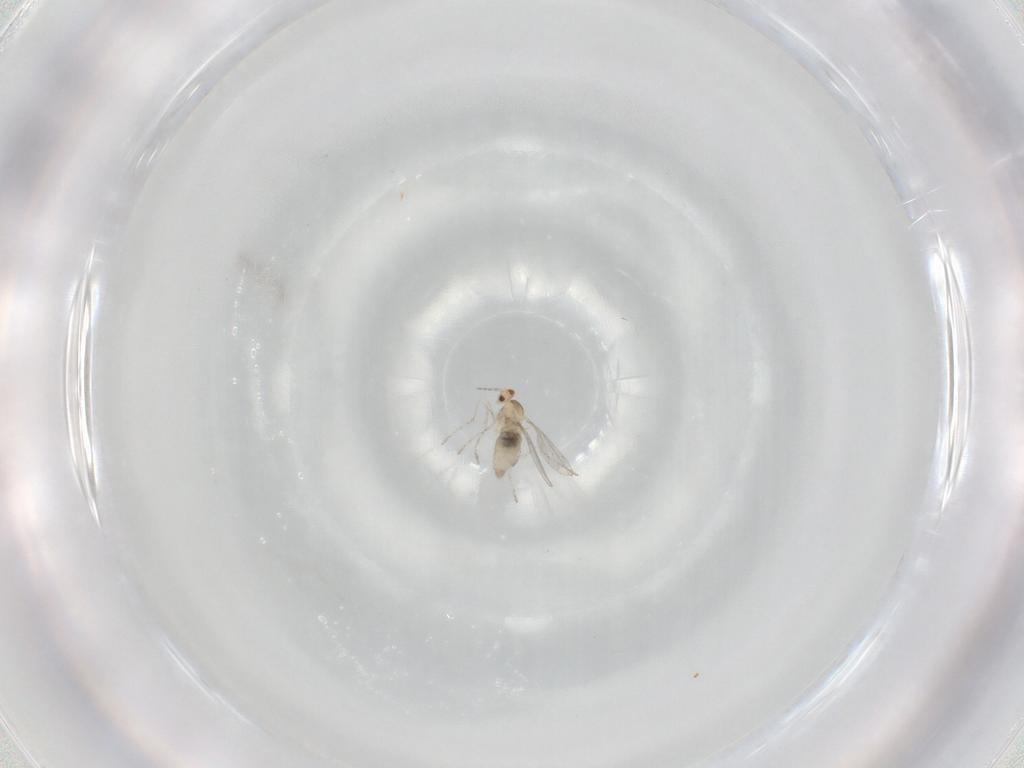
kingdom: Animalia
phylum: Arthropoda
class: Insecta
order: Diptera
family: Cecidomyiidae
